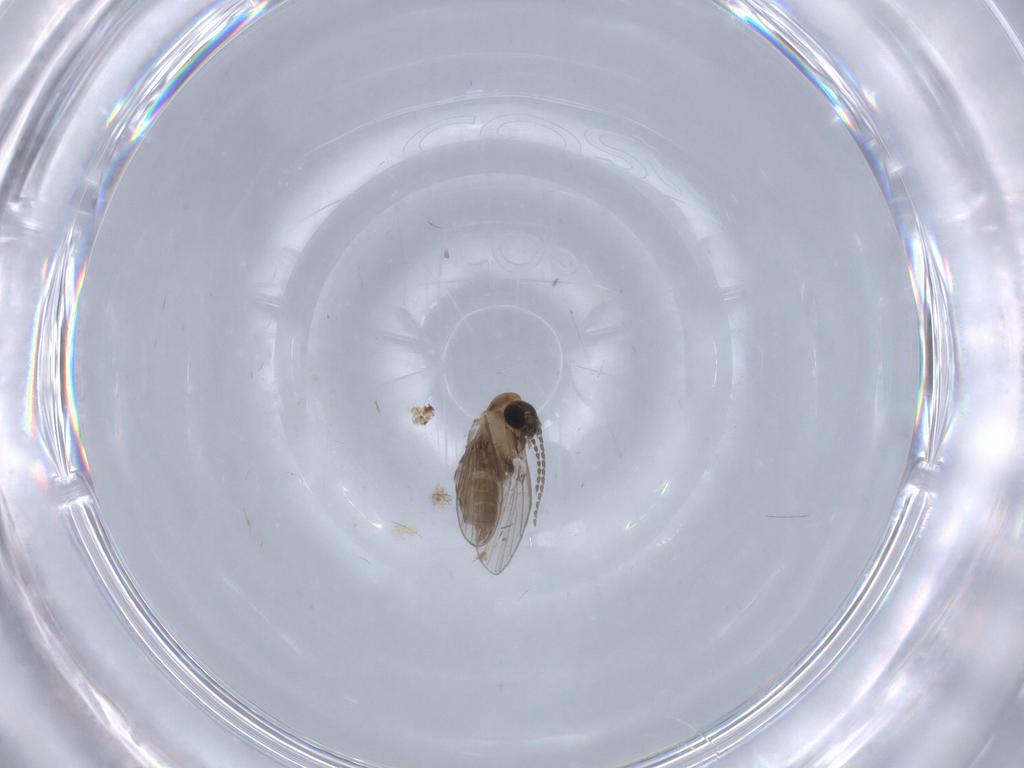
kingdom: Animalia
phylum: Arthropoda
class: Insecta
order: Diptera
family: Psychodidae
